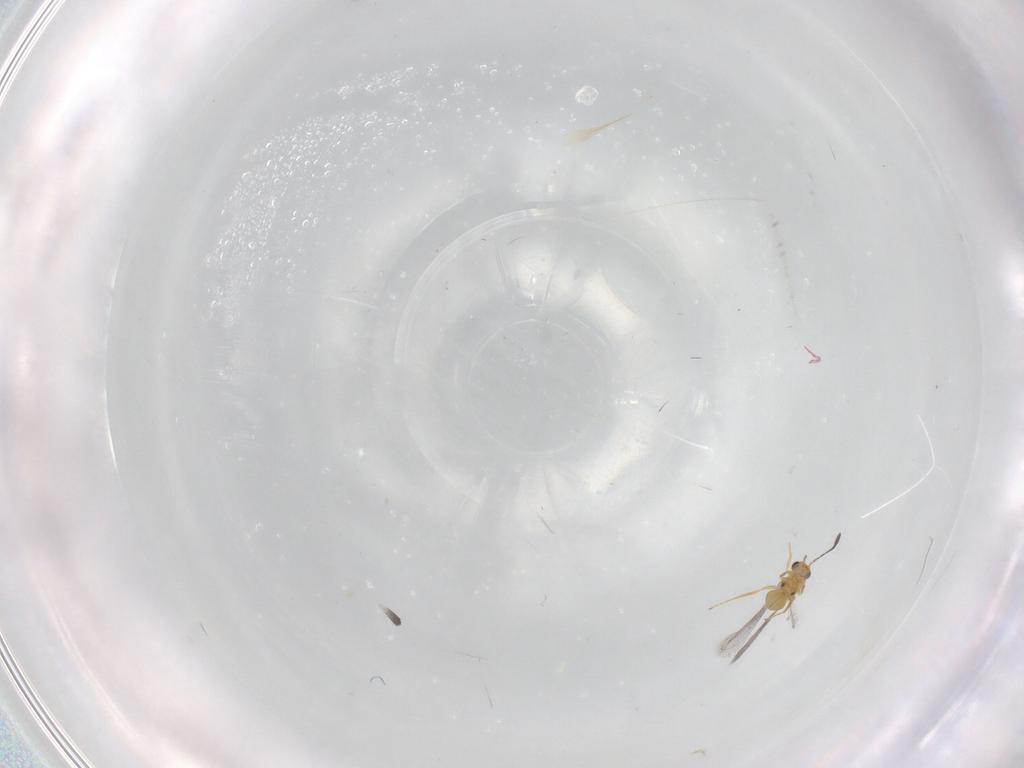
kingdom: Animalia
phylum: Arthropoda
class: Insecta
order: Hymenoptera
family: Mymaridae
